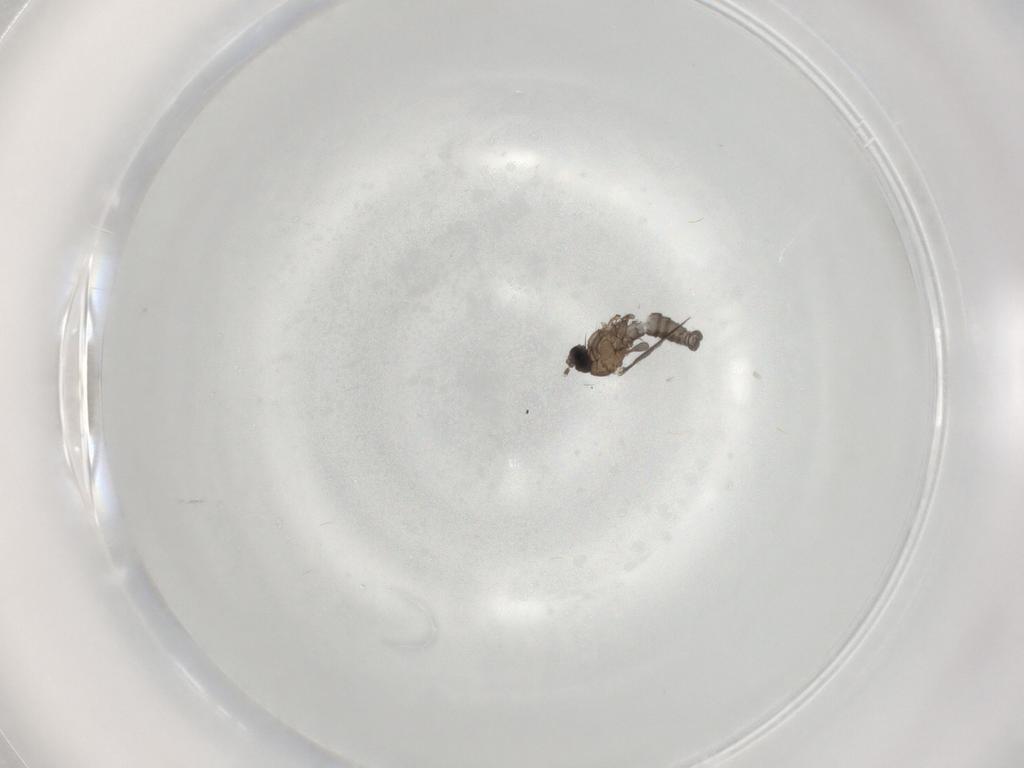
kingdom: Animalia
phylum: Arthropoda
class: Insecta
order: Diptera
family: Sciaridae
